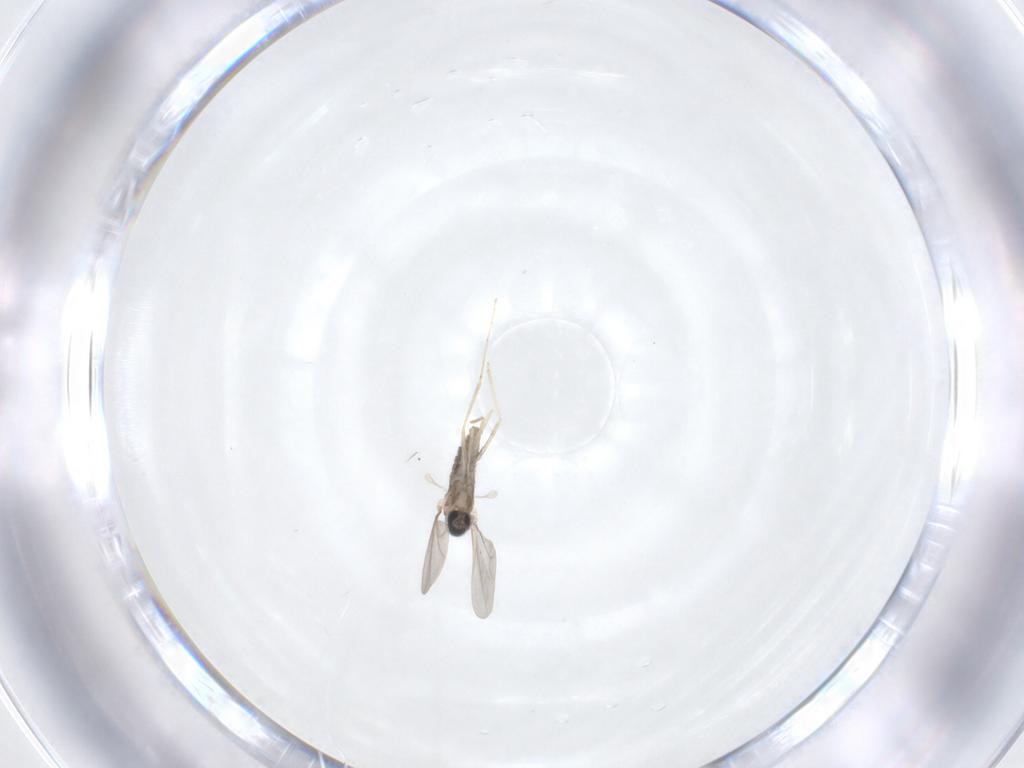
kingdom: Animalia
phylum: Arthropoda
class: Insecta
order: Diptera
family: Cecidomyiidae
